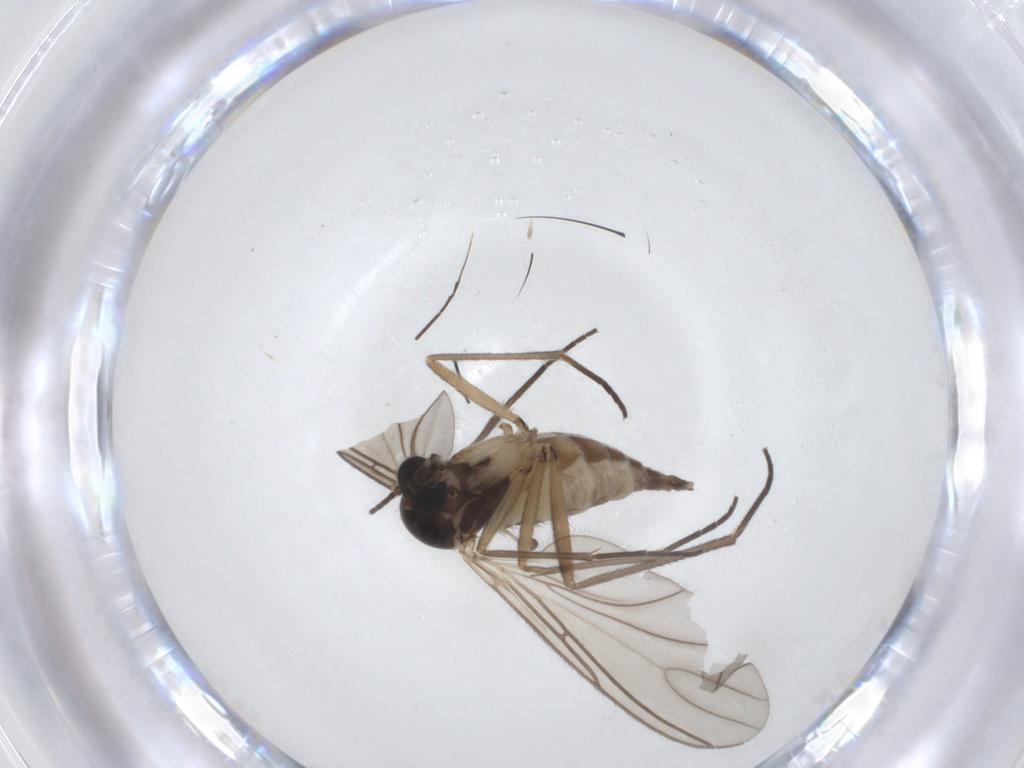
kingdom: Animalia
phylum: Arthropoda
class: Insecta
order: Diptera
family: Sciaridae
